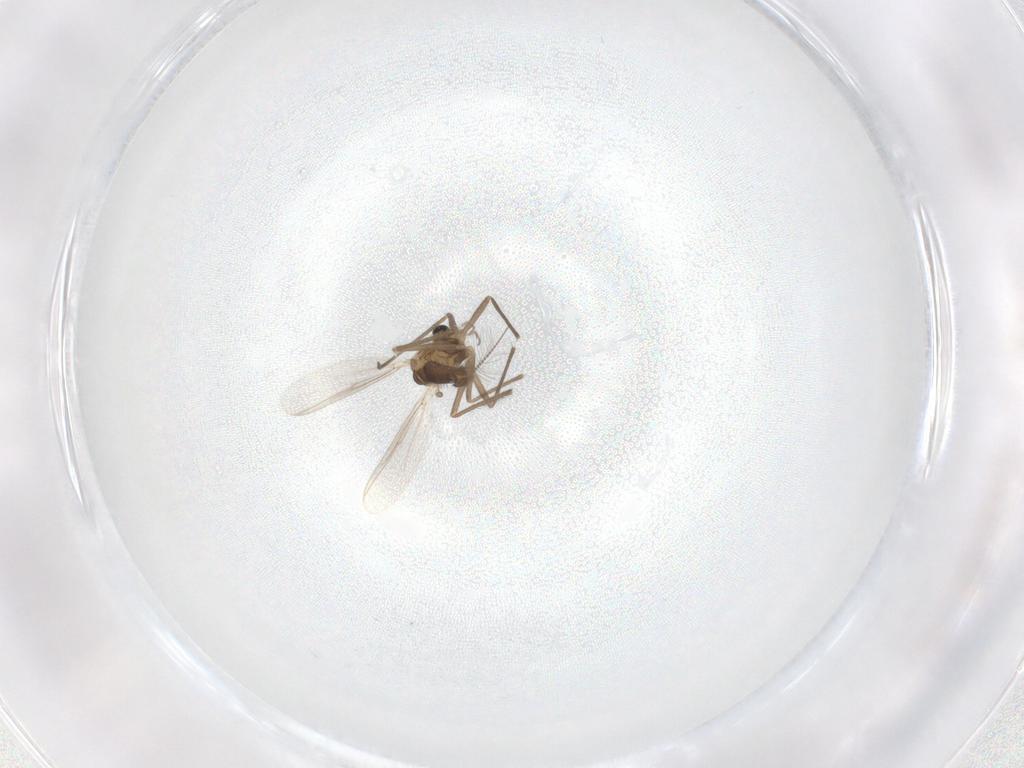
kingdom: Animalia
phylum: Arthropoda
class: Insecta
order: Diptera
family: Chironomidae
